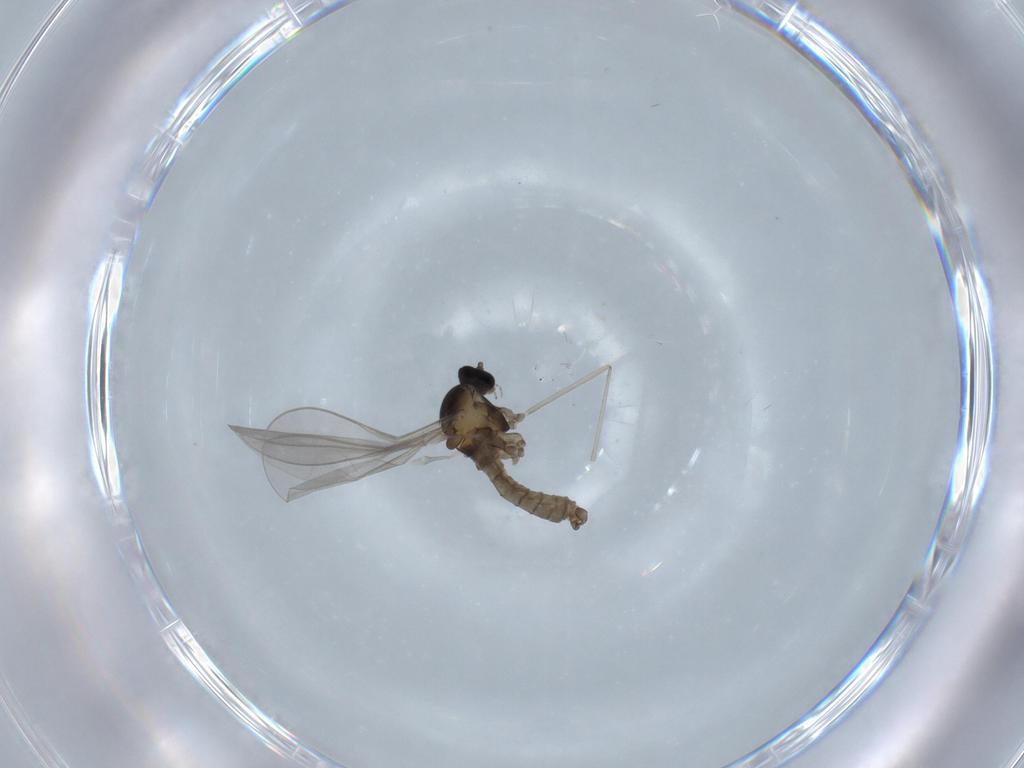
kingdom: Animalia
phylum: Arthropoda
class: Insecta
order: Diptera
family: Cecidomyiidae
